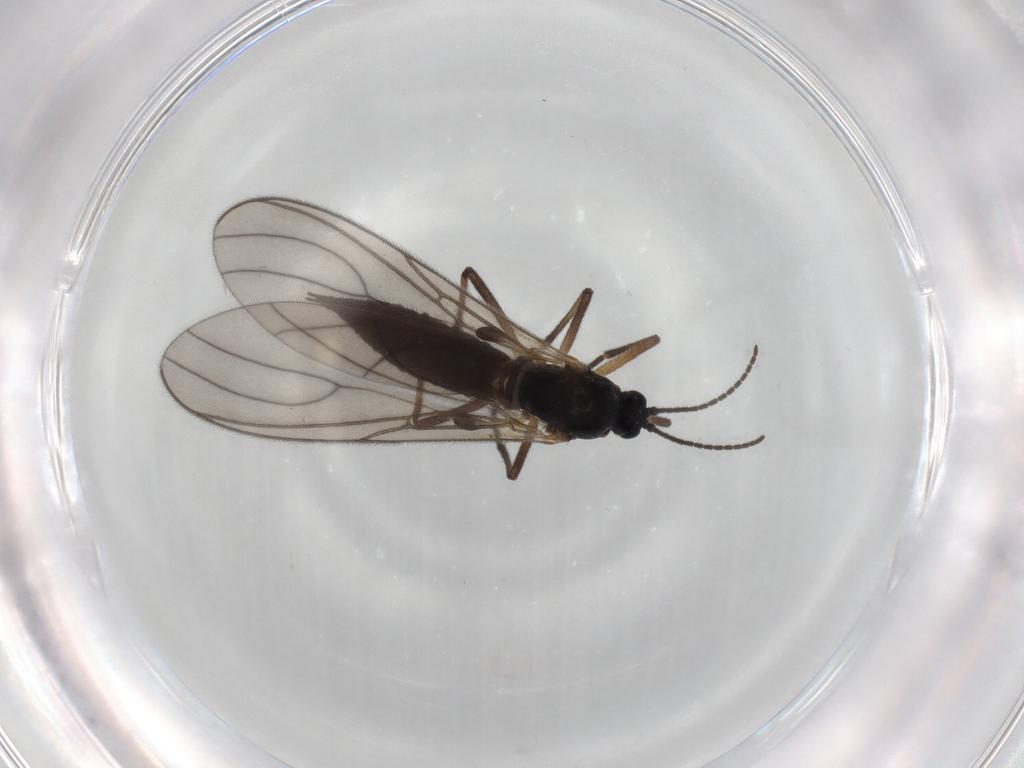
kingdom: Animalia
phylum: Arthropoda
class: Insecta
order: Diptera
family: Sciaridae
